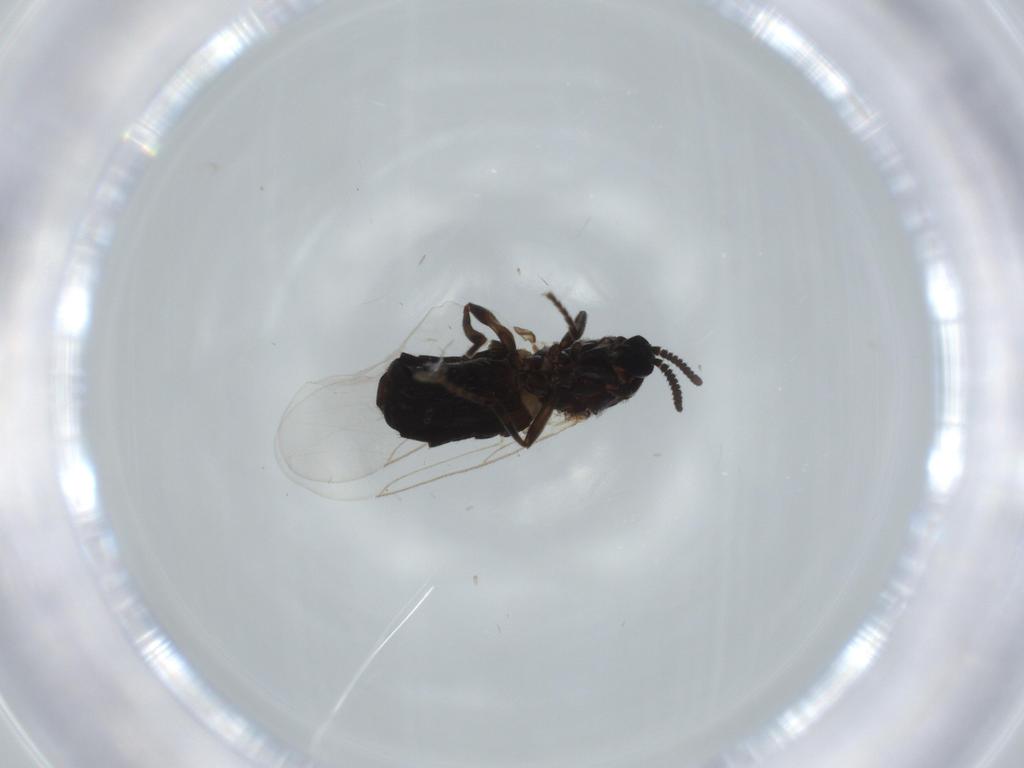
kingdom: Animalia
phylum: Arthropoda
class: Insecta
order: Diptera
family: Scatopsidae
